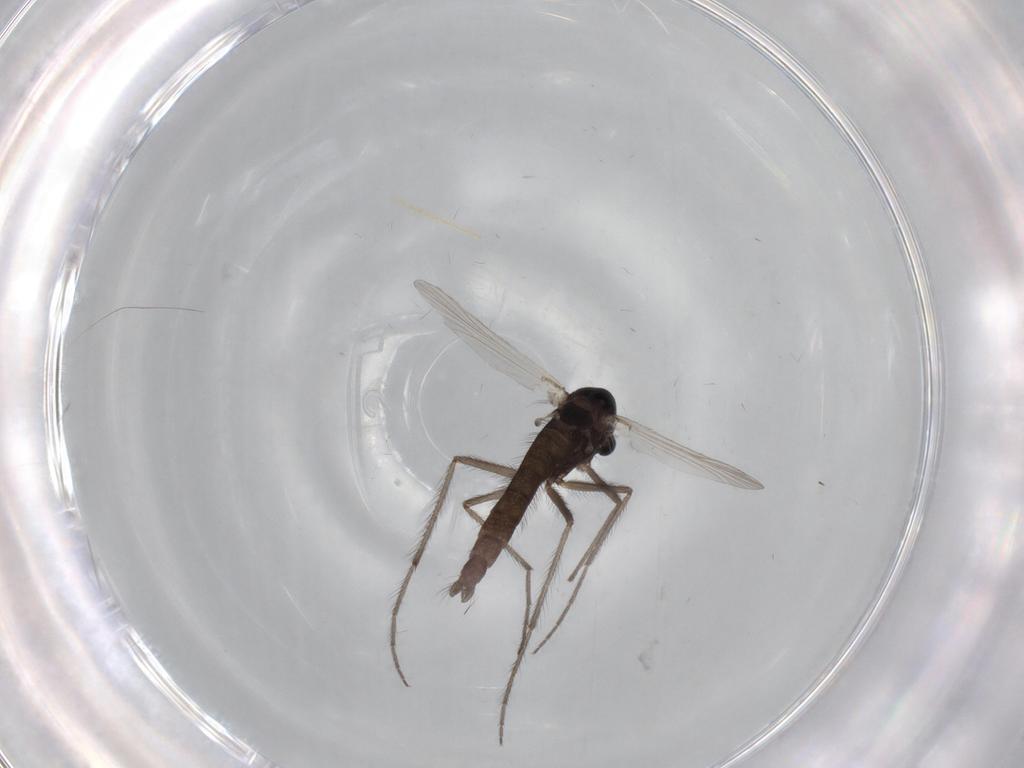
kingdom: Animalia
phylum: Arthropoda
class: Insecta
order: Diptera
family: Chironomidae
